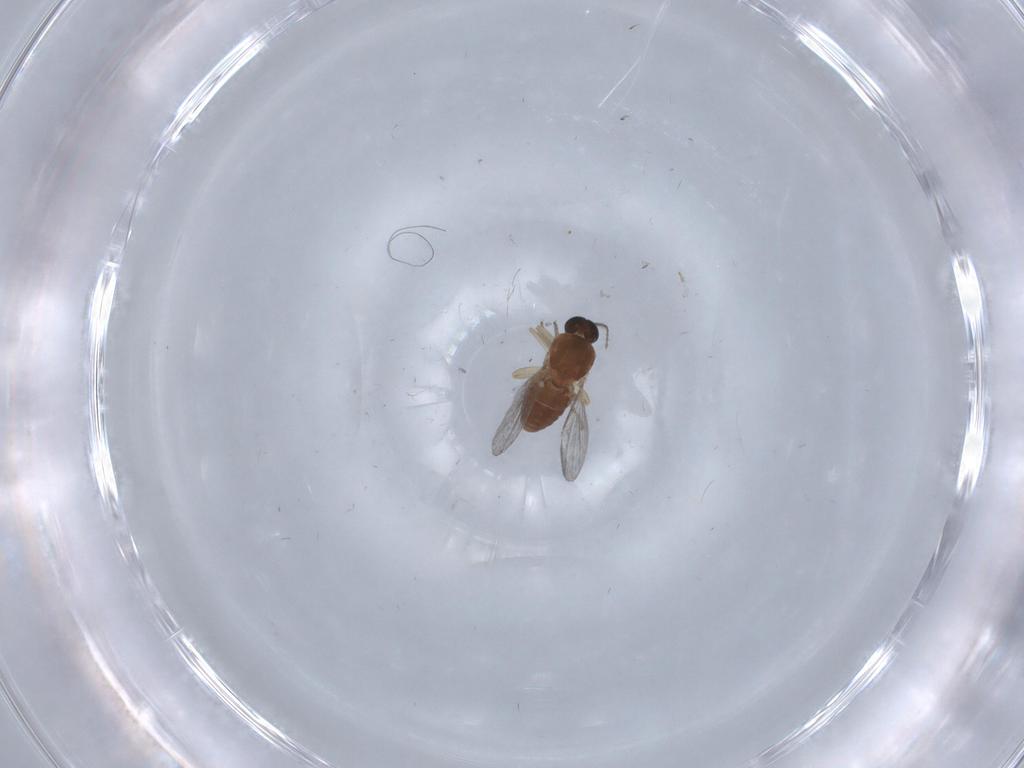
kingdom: Animalia
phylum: Arthropoda
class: Insecta
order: Diptera
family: Ceratopogonidae
